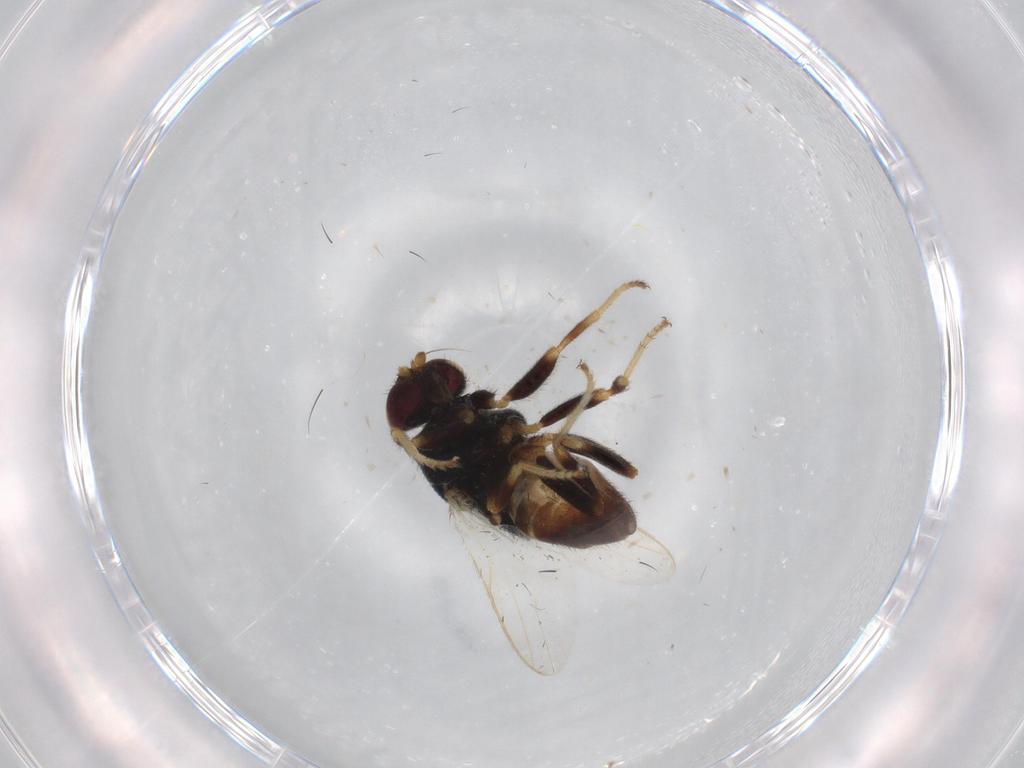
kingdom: Animalia
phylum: Arthropoda
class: Insecta
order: Diptera
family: Chloropidae
